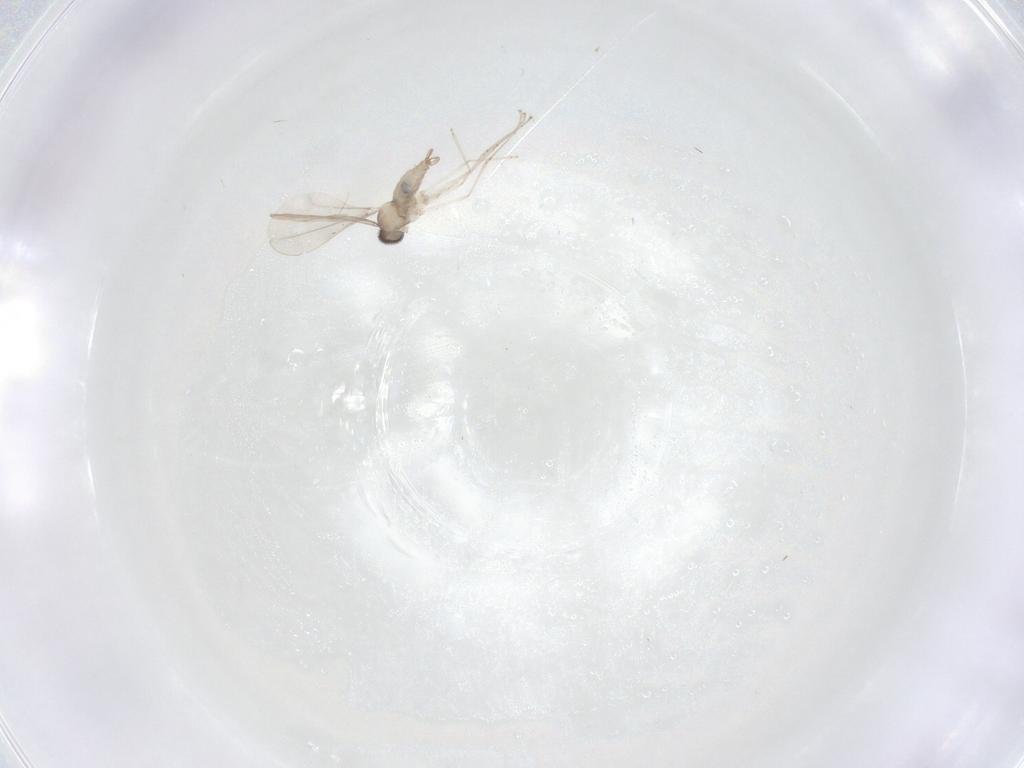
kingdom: Animalia
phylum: Arthropoda
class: Insecta
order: Diptera
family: Cecidomyiidae
